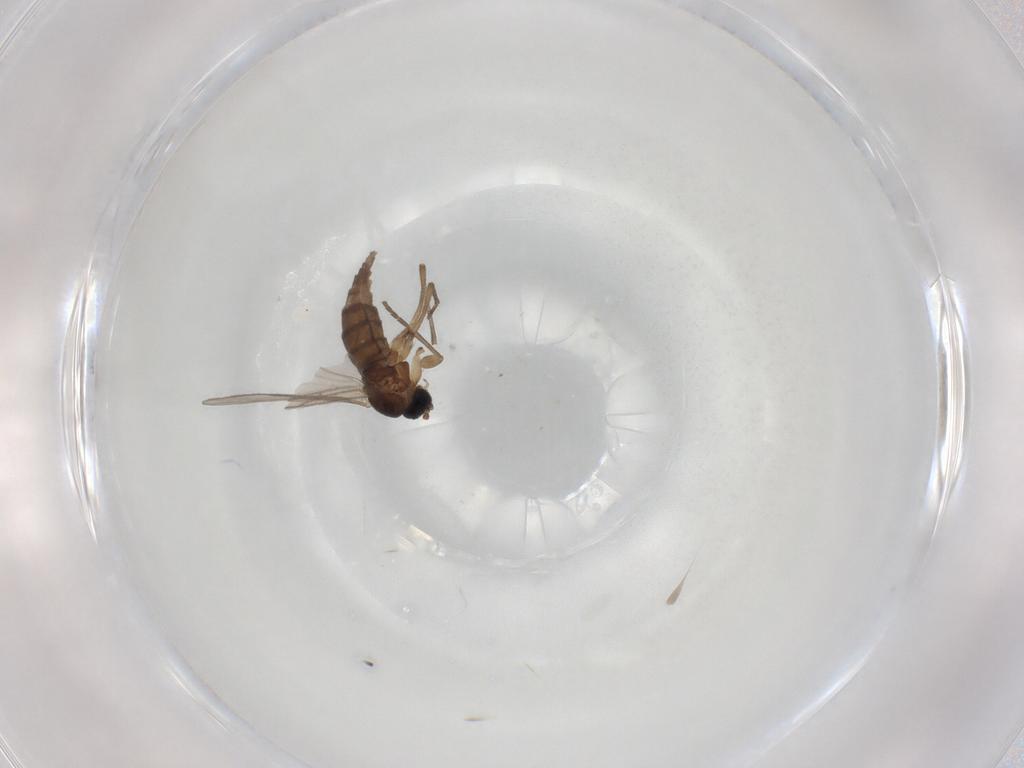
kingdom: Animalia
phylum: Arthropoda
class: Insecta
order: Diptera
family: Sciaridae
